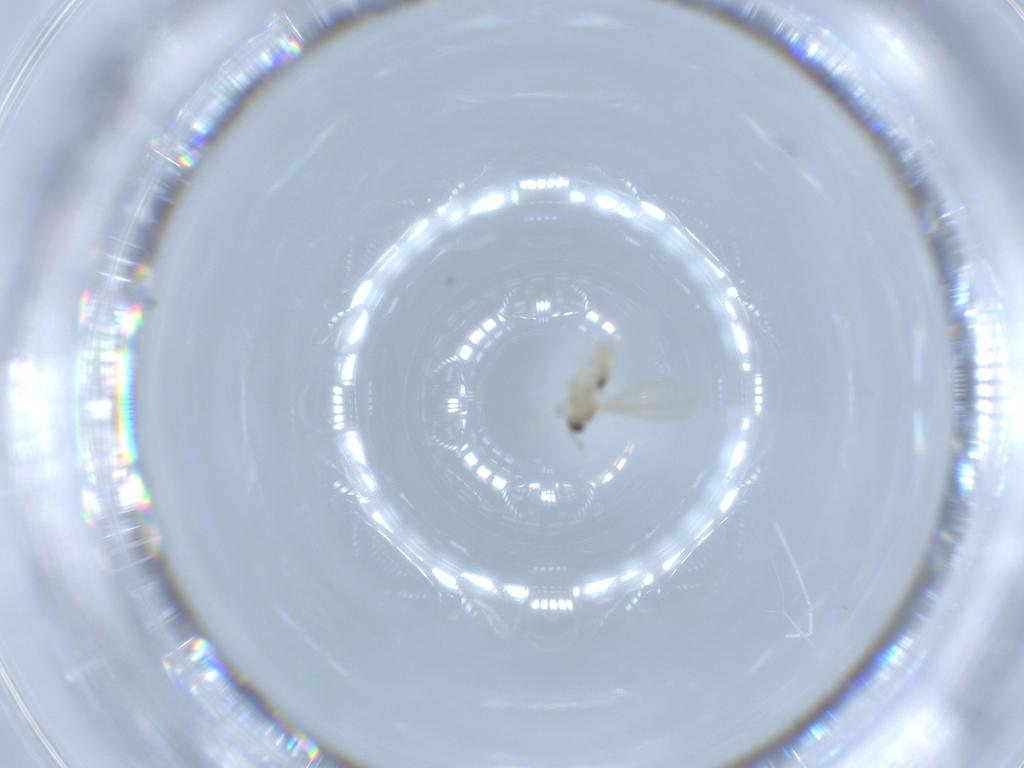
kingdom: Animalia
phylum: Arthropoda
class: Insecta
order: Diptera
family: Cecidomyiidae
